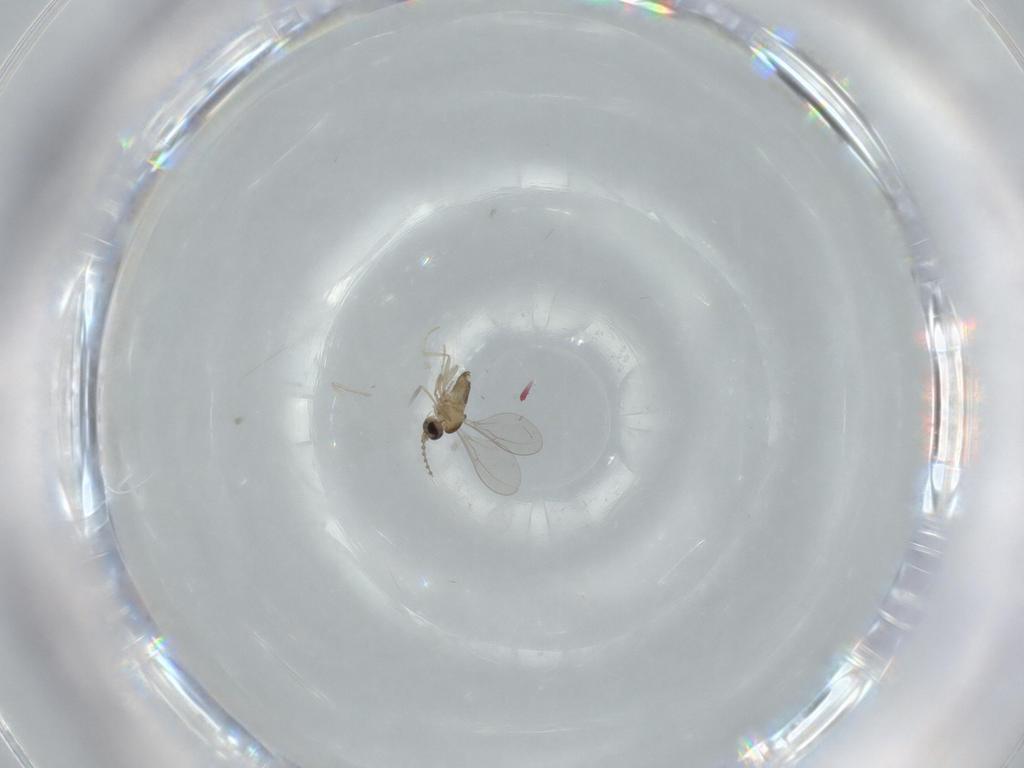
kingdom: Animalia
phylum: Arthropoda
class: Insecta
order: Diptera
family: Cecidomyiidae
